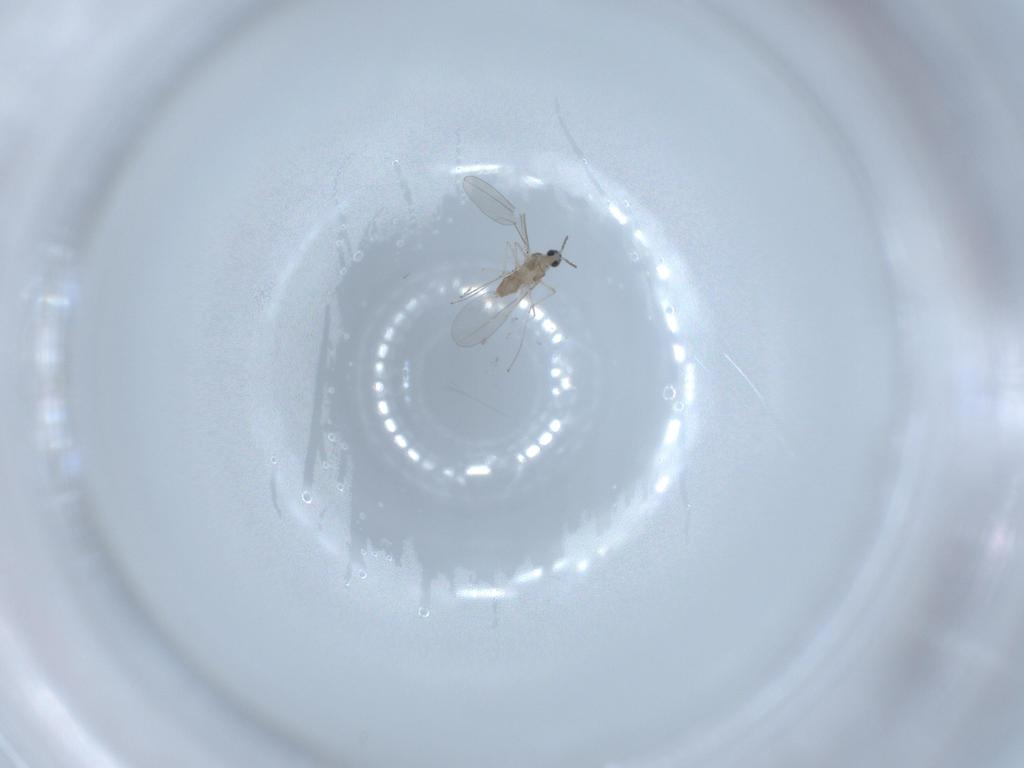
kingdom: Animalia
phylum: Arthropoda
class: Insecta
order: Diptera
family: Cecidomyiidae
